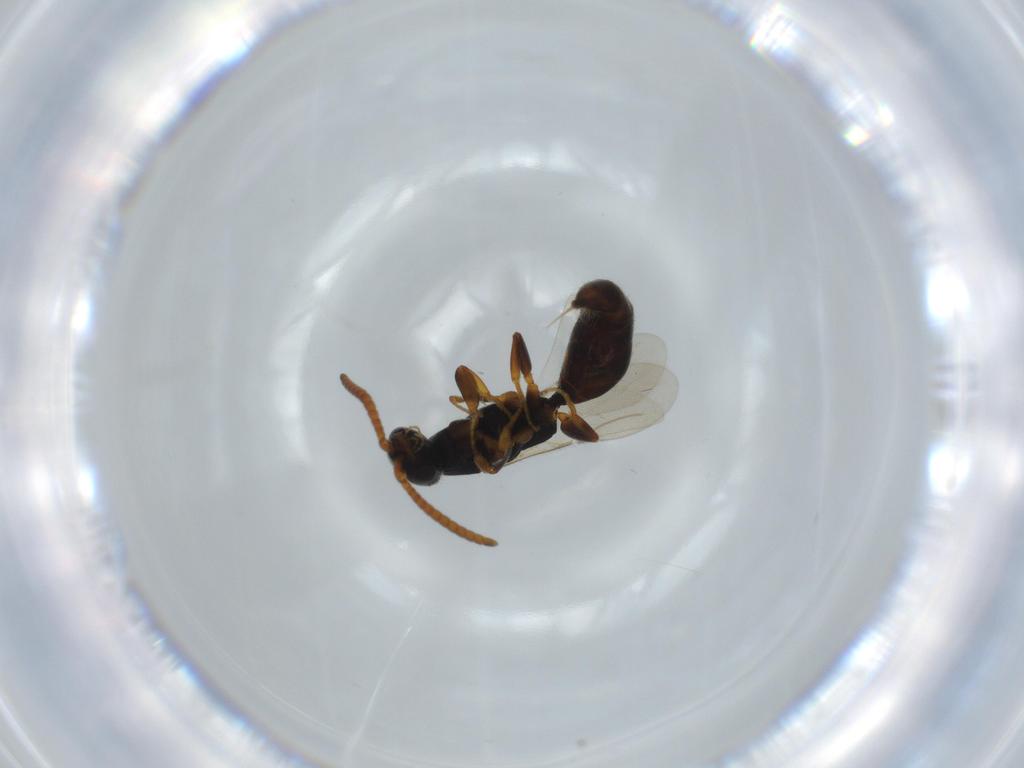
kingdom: Animalia
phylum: Arthropoda
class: Insecta
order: Hymenoptera
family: Bethylidae
